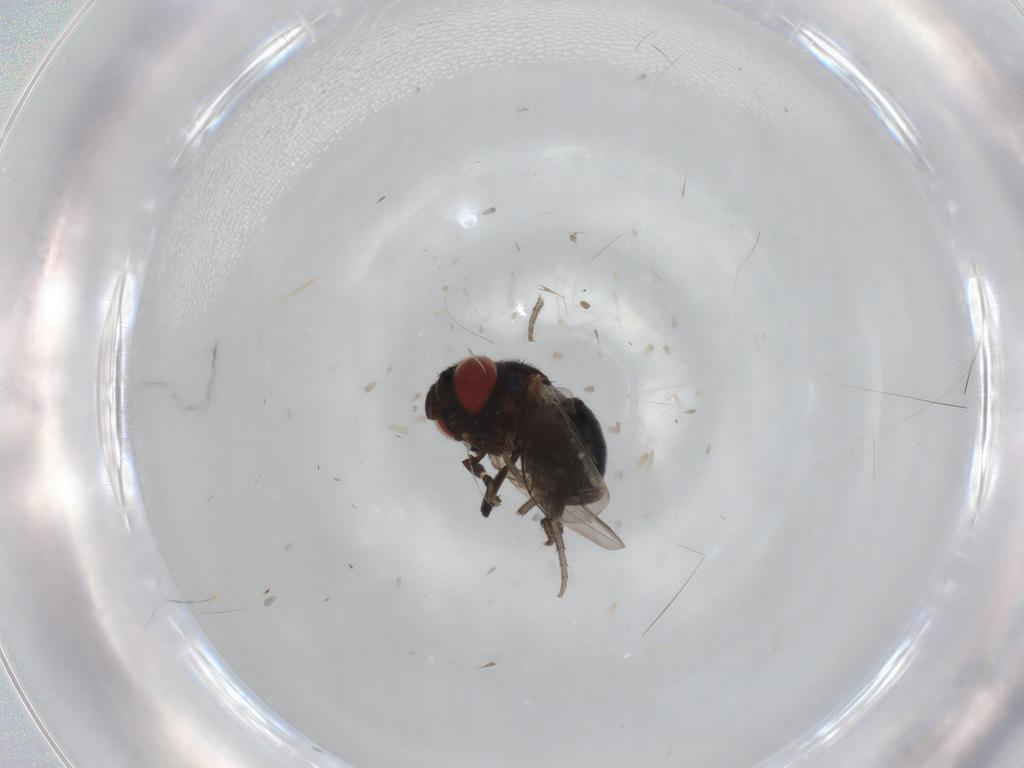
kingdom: Animalia
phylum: Arthropoda
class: Insecta
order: Diptera
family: Cryptochetidae
